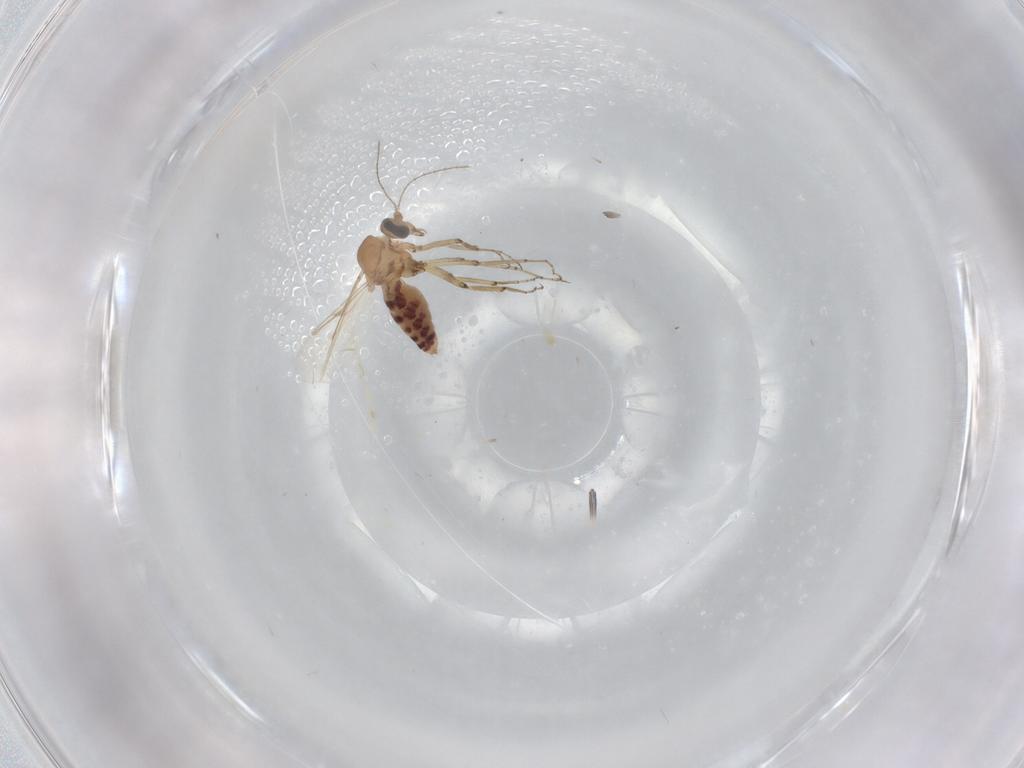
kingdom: Animalia
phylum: Arthropoda
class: Insecta
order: Diptera
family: Ceratopogonidae
